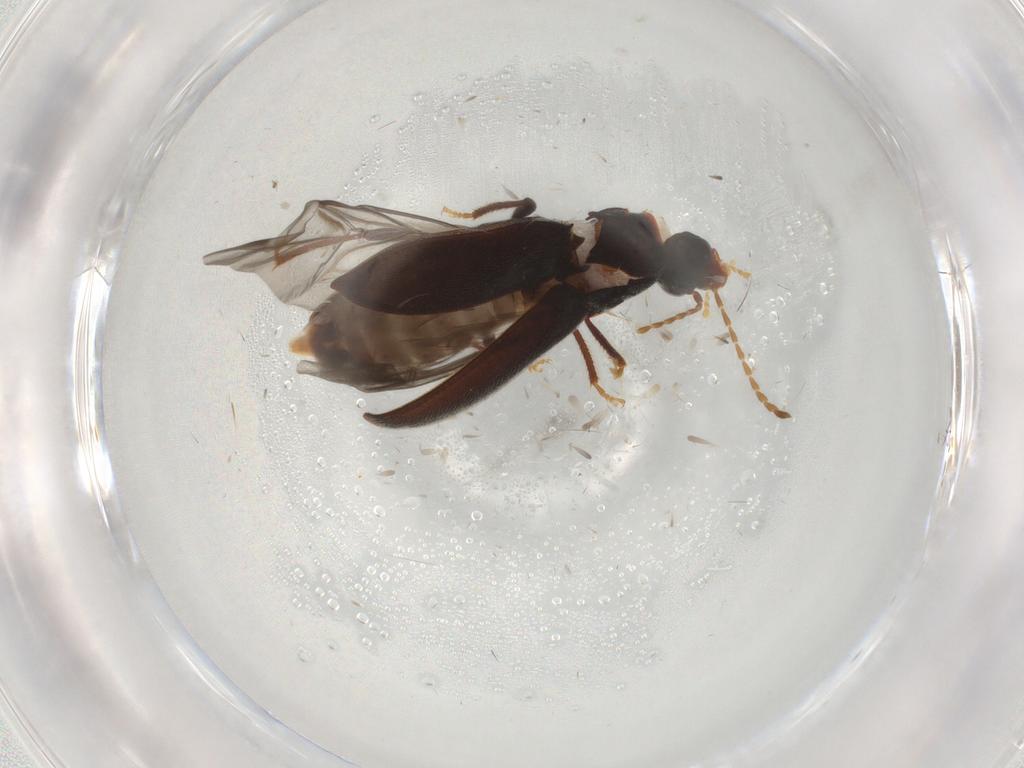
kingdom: Animalia
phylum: Arthropoda
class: Insecta
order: Coleoptera
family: Ptilodactylidae
